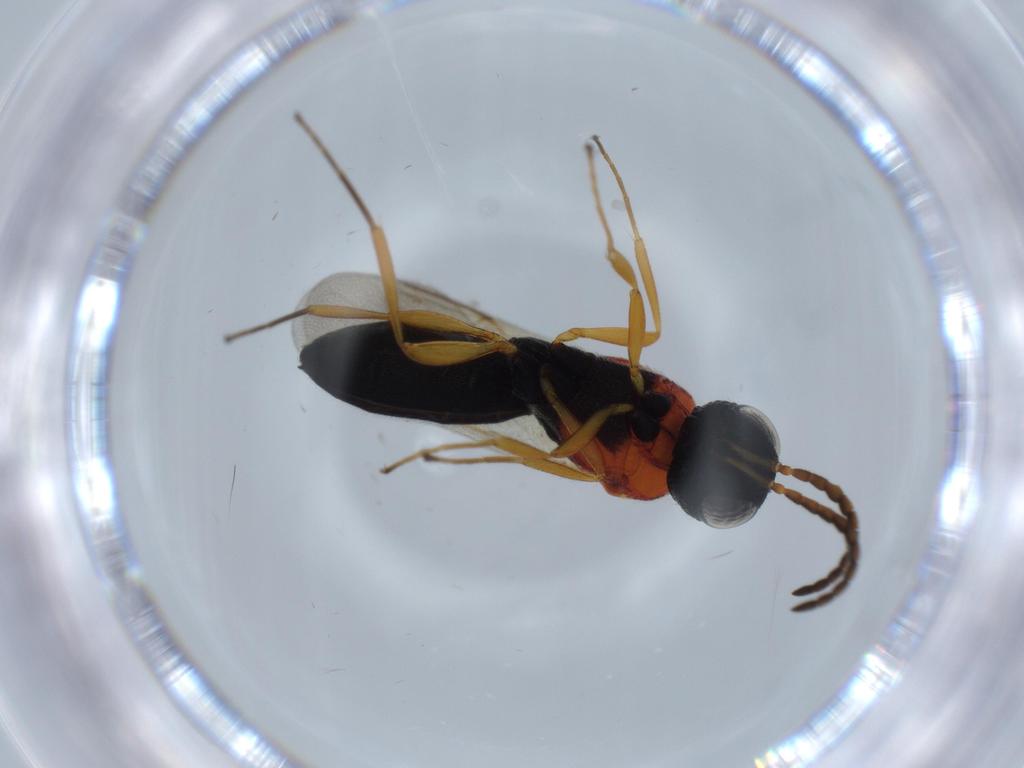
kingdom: Animalia
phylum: Arthropoda
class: Insecta
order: Hymenoptera
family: Scelionidae
